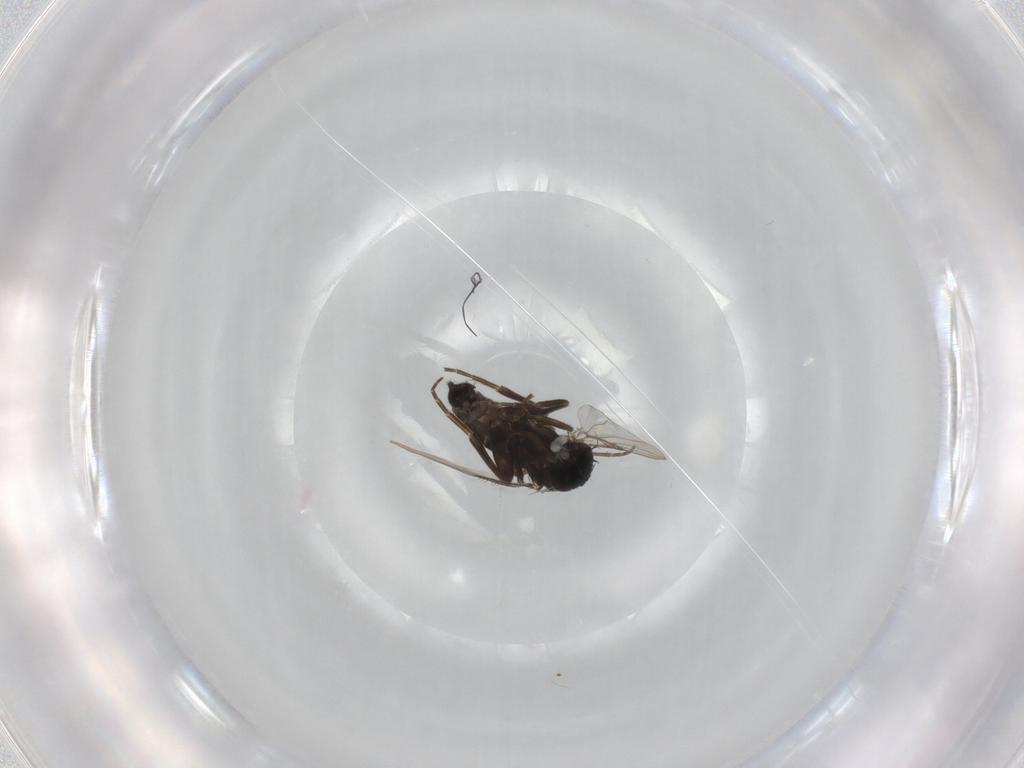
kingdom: Animalia
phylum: Arthropoda
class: Insecta
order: Diptera
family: Phoridae
